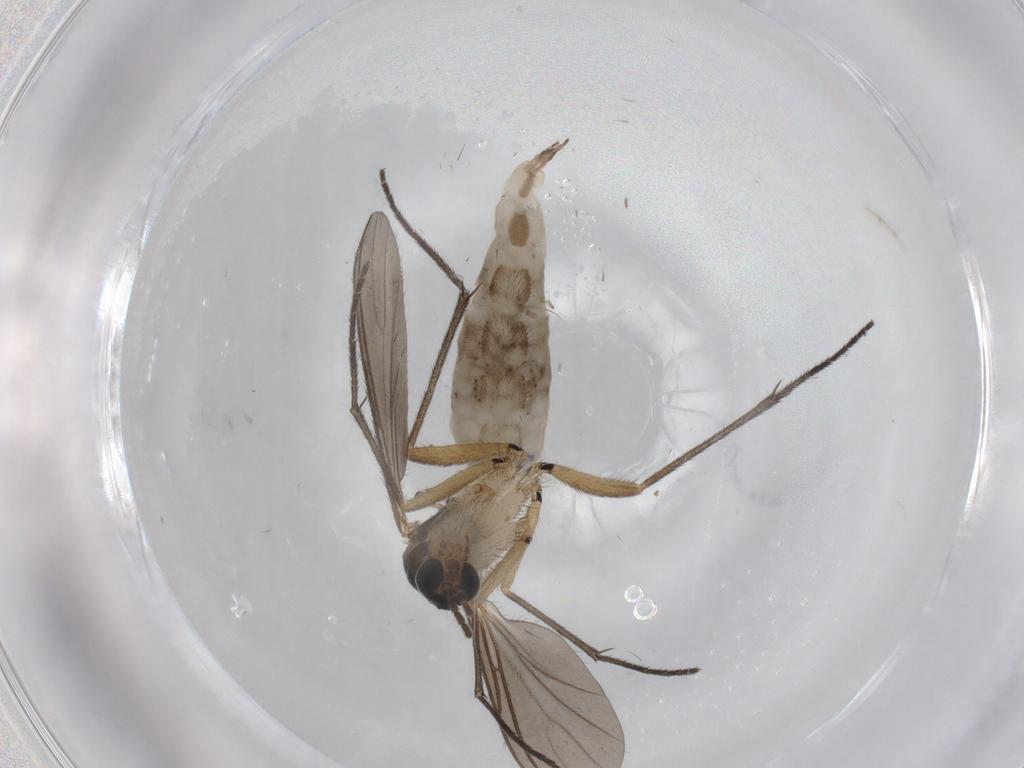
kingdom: Animalia
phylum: Arthropoda
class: Insecta
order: Diptera
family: Sciaridae
